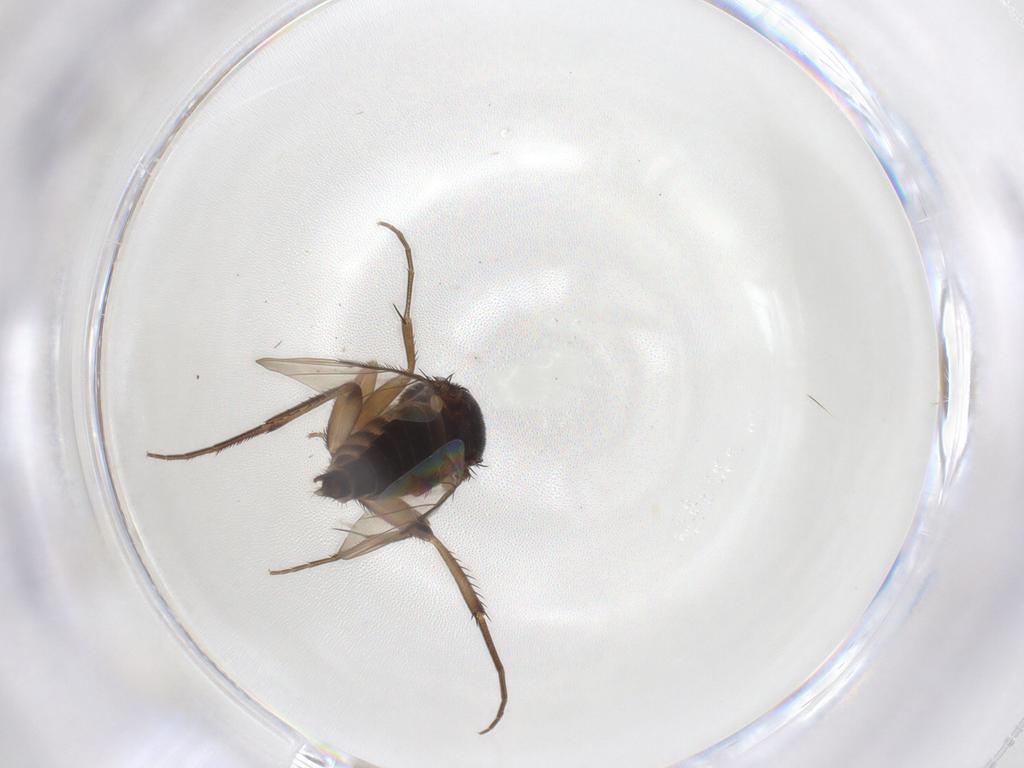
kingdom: Animalia
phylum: Arthropoda
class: Insecta
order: Diptera
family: Phoridae
